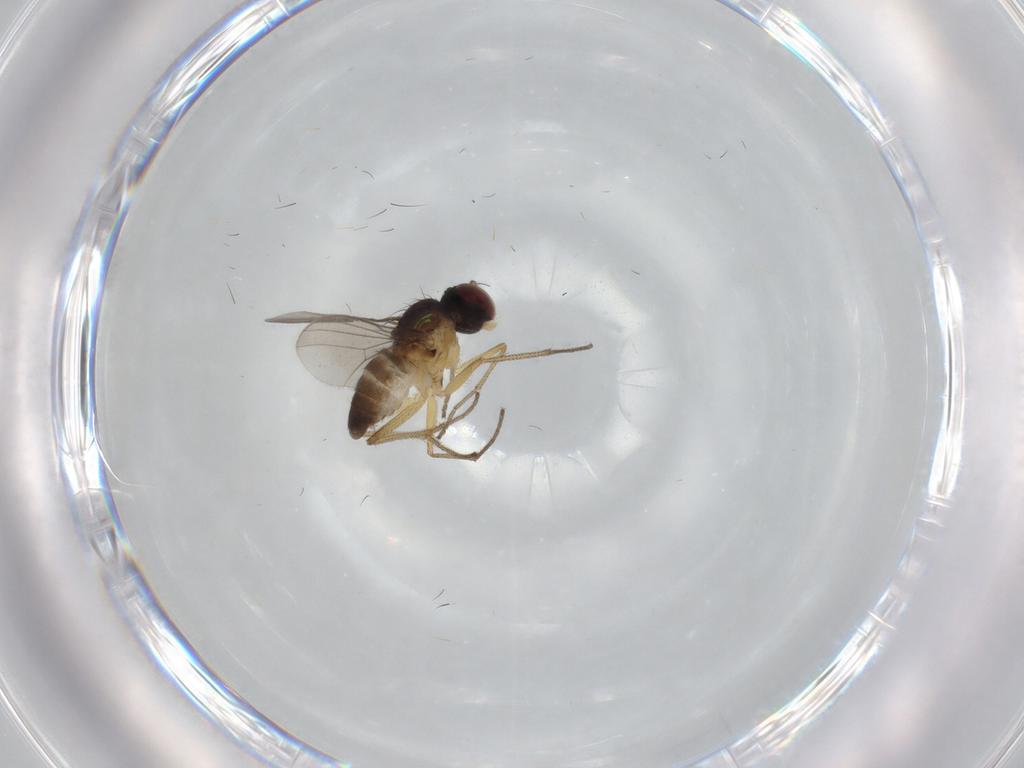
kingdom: Animalia
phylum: Arthropoda
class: Insecta
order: Diptera
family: Dolichopodidae
